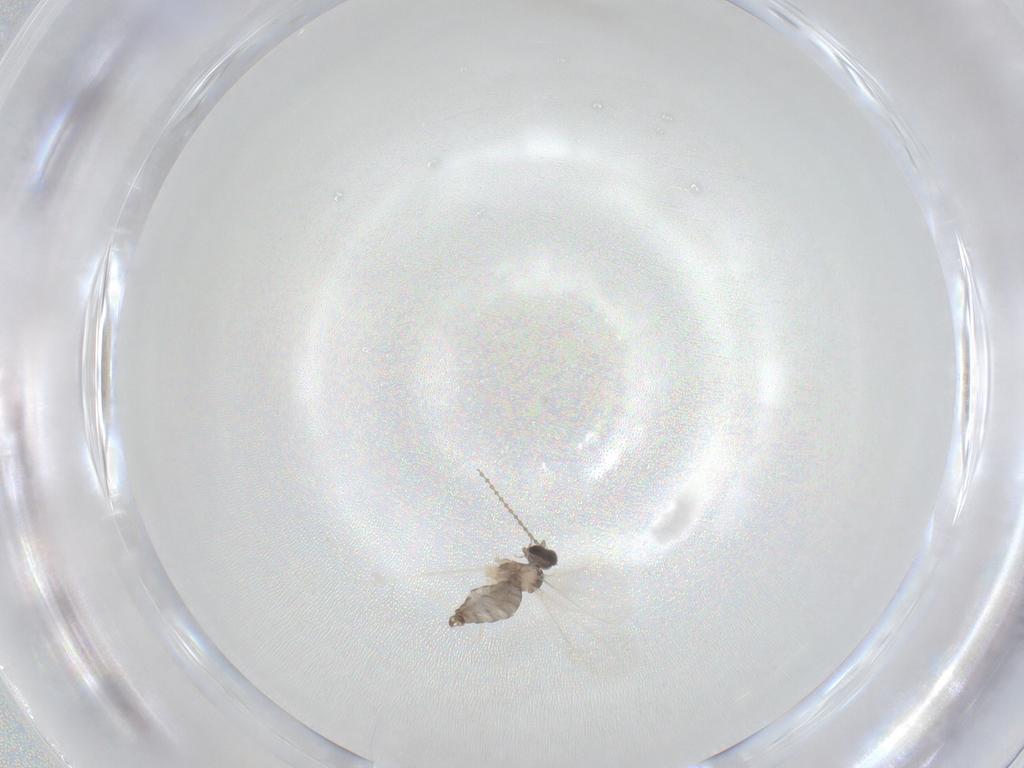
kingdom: Animalia
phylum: Arthropoda
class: Insecta
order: Diptera
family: Cecidomyiidae
